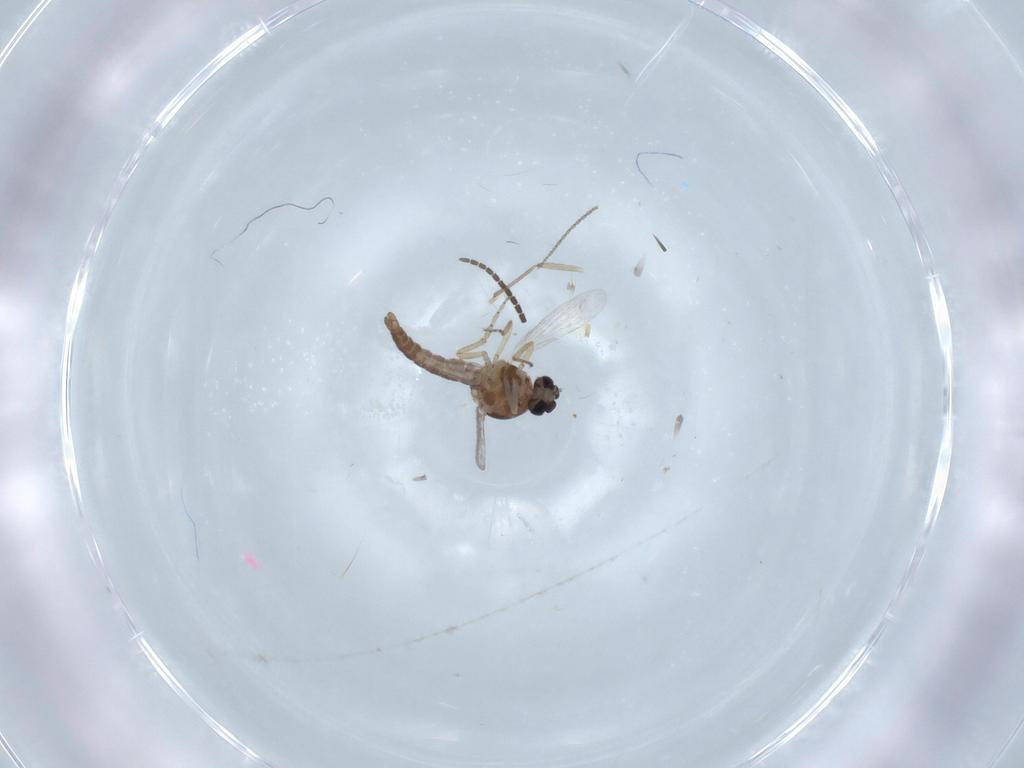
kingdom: Animalia
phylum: Arthropoda
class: Insecta
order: Diptera
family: Ceratopogonidae
